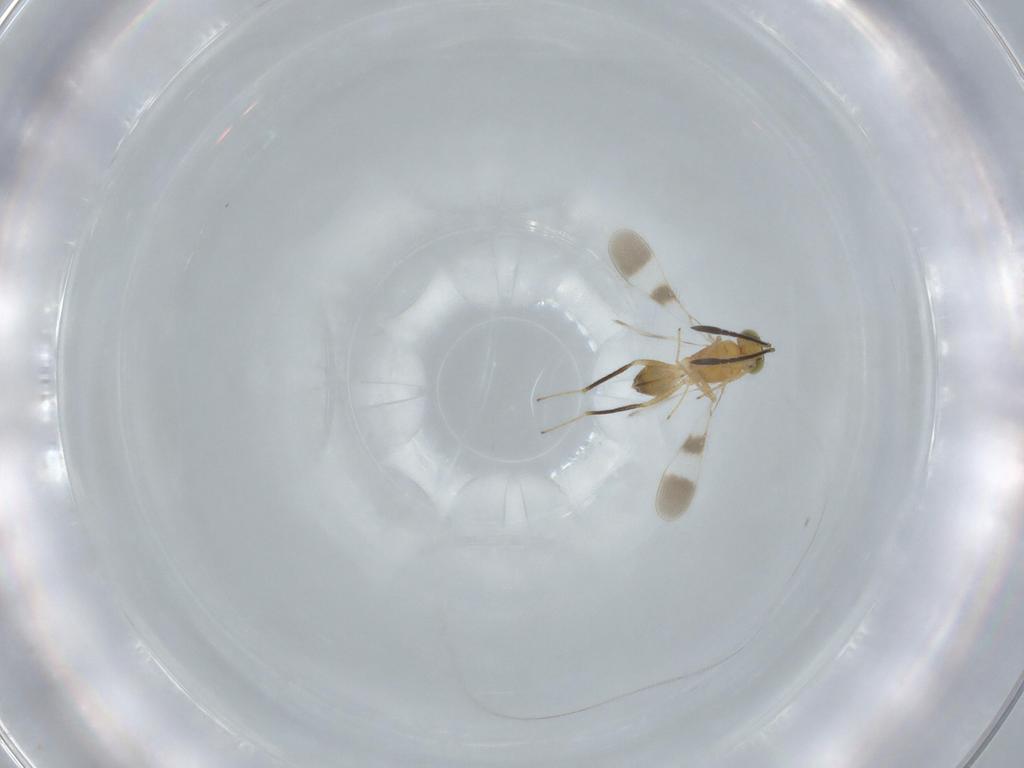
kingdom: Animalia
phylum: Arthropoda
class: Insecta
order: Hymenoptera
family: Mymaridae
